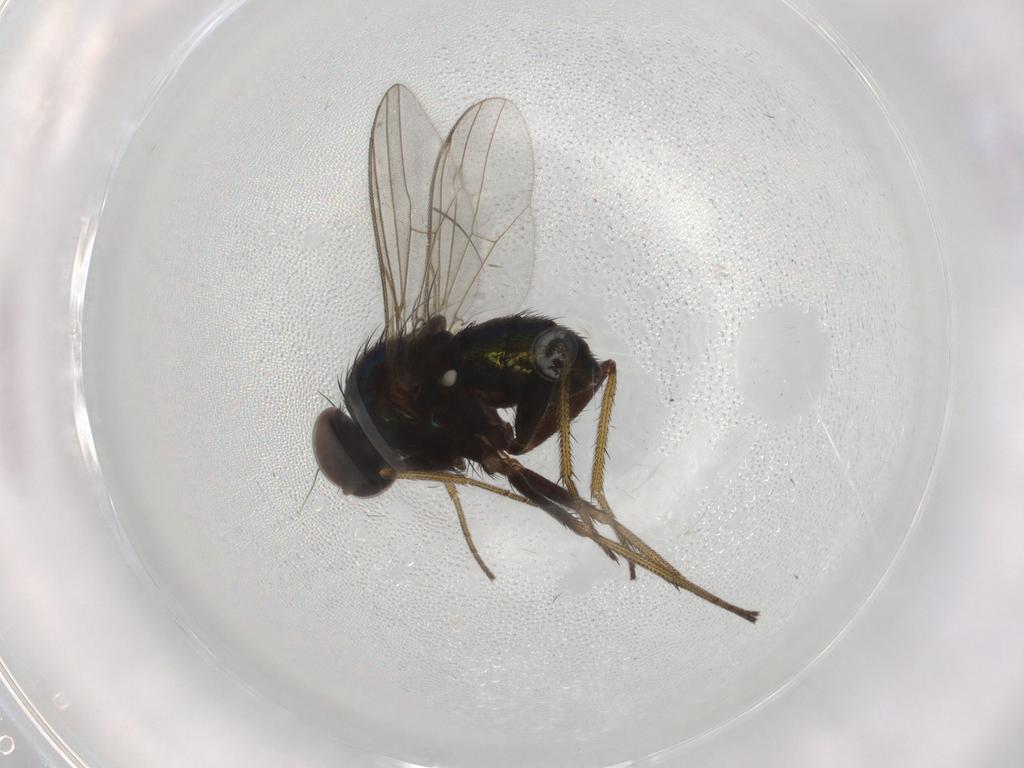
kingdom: Animalia
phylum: Arthropoda
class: Insecta
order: Diptera
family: Dolichopodidae
